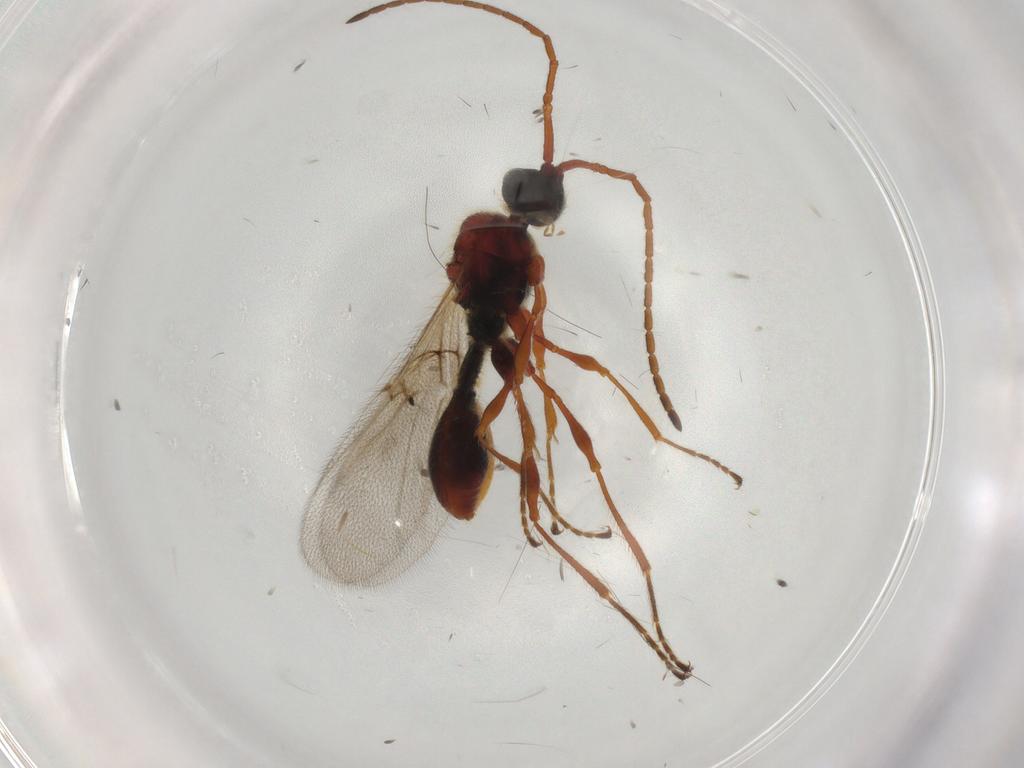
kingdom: Animalia
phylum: Arthropoda
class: Insecta
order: Hymenoptera
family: Diapriidae
